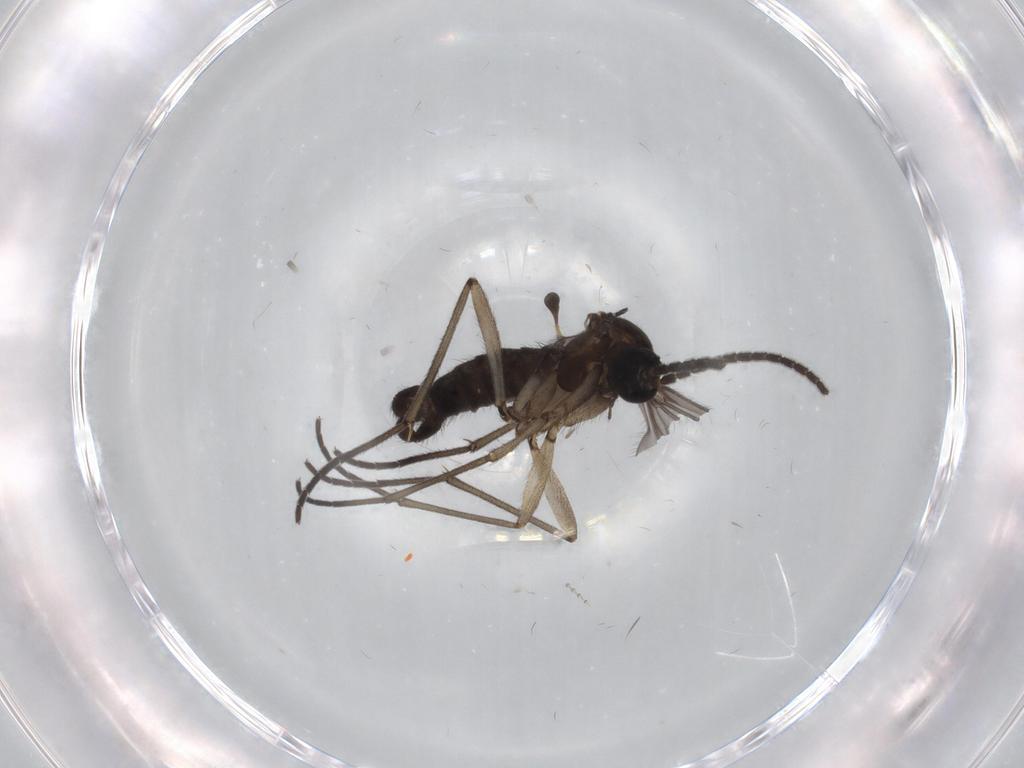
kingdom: Animalia
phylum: Arthropoda
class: Insecta
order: Diptera
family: Sciaridae
